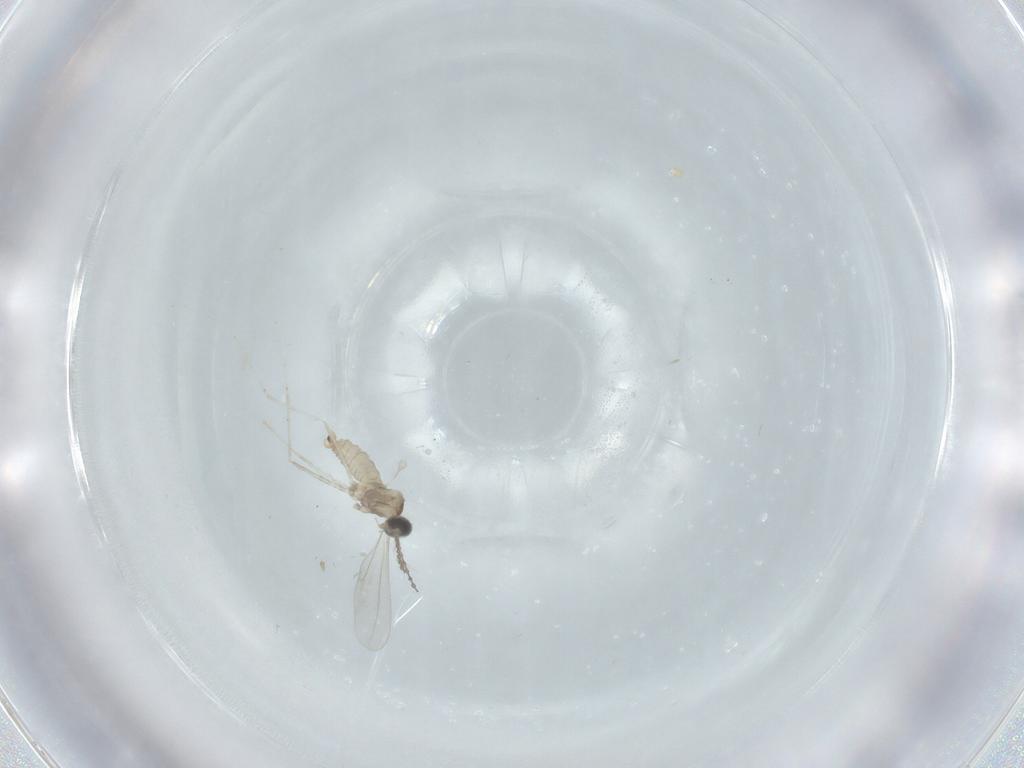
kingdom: Animalia
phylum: Arthropoda
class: Insecta
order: Diptera
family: Cecidomyiidae
